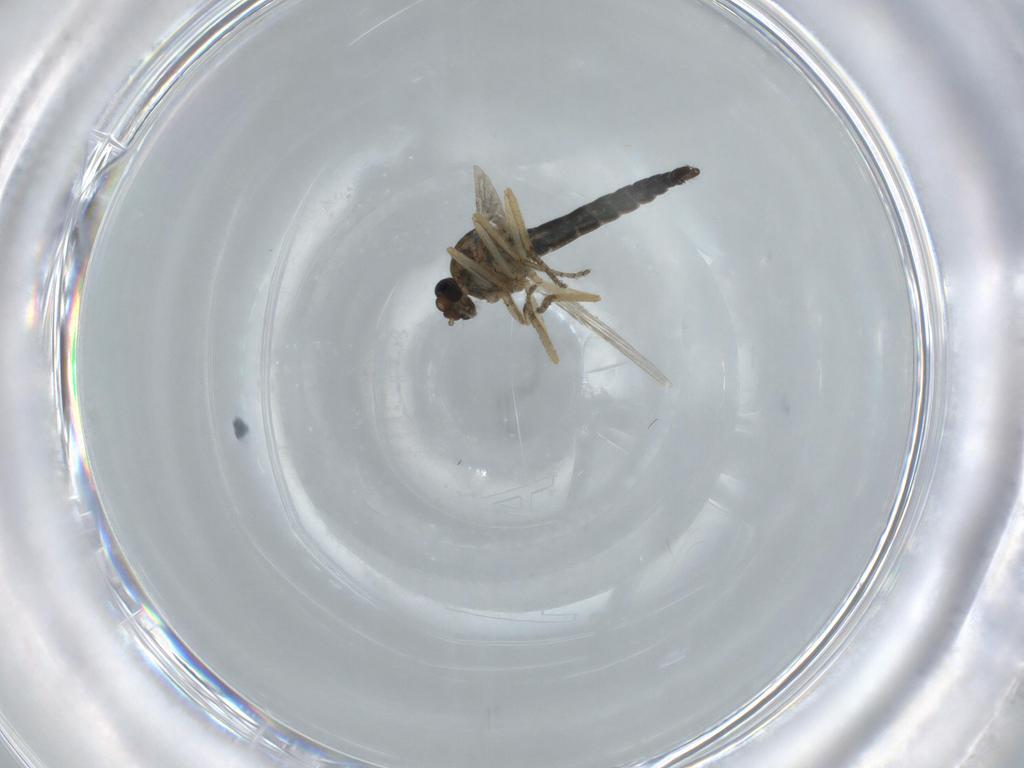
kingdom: Animalia
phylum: Arthropoda
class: Insecta
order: Diptera
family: Ceratopogonidae
